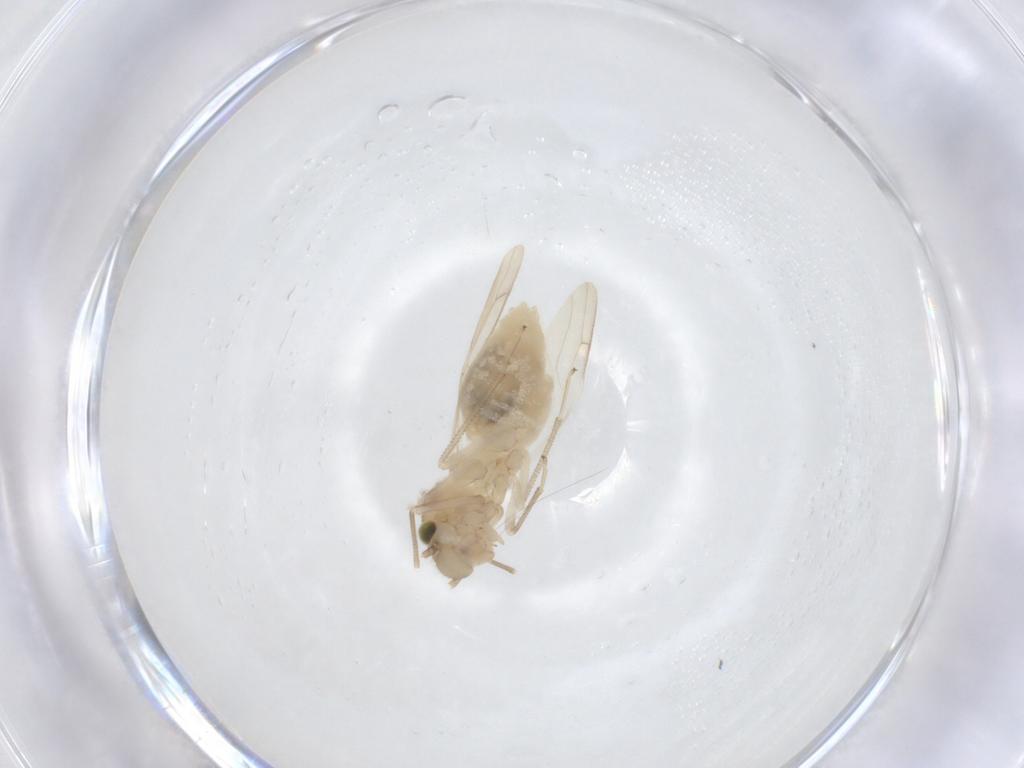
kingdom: Animalia
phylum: Arthropoda
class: Insecta
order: Psocodea
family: Caeciliusidae
